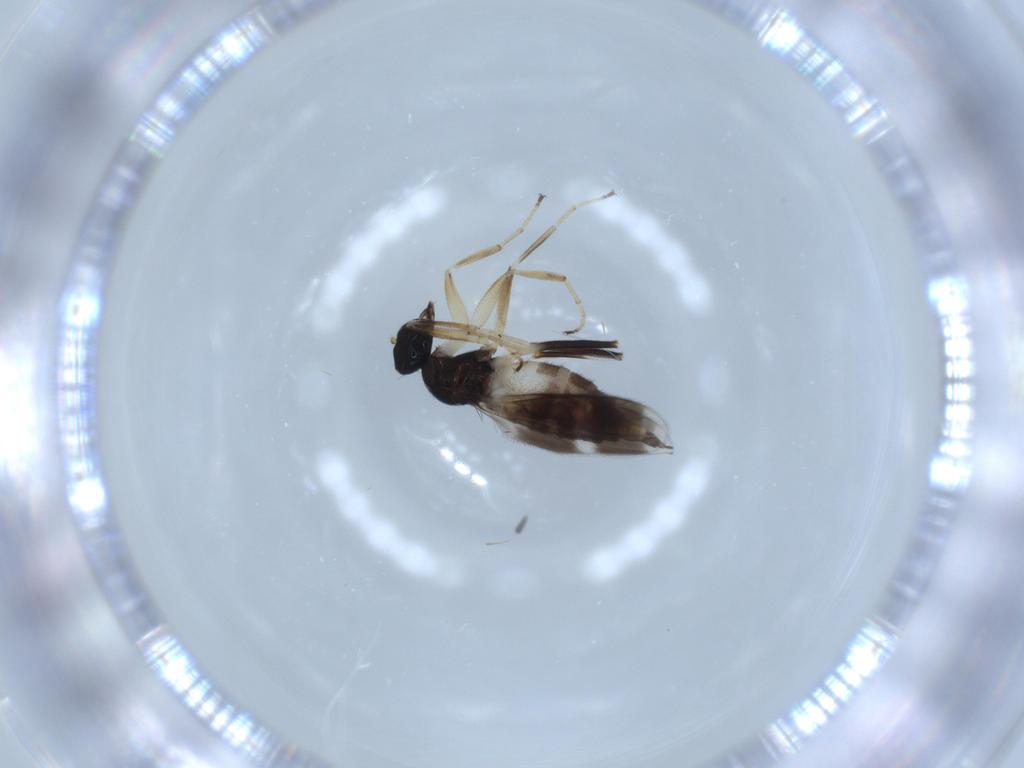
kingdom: Animalia
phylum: Arthropoda
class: Insecta
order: Diptera
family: Hybotidae
